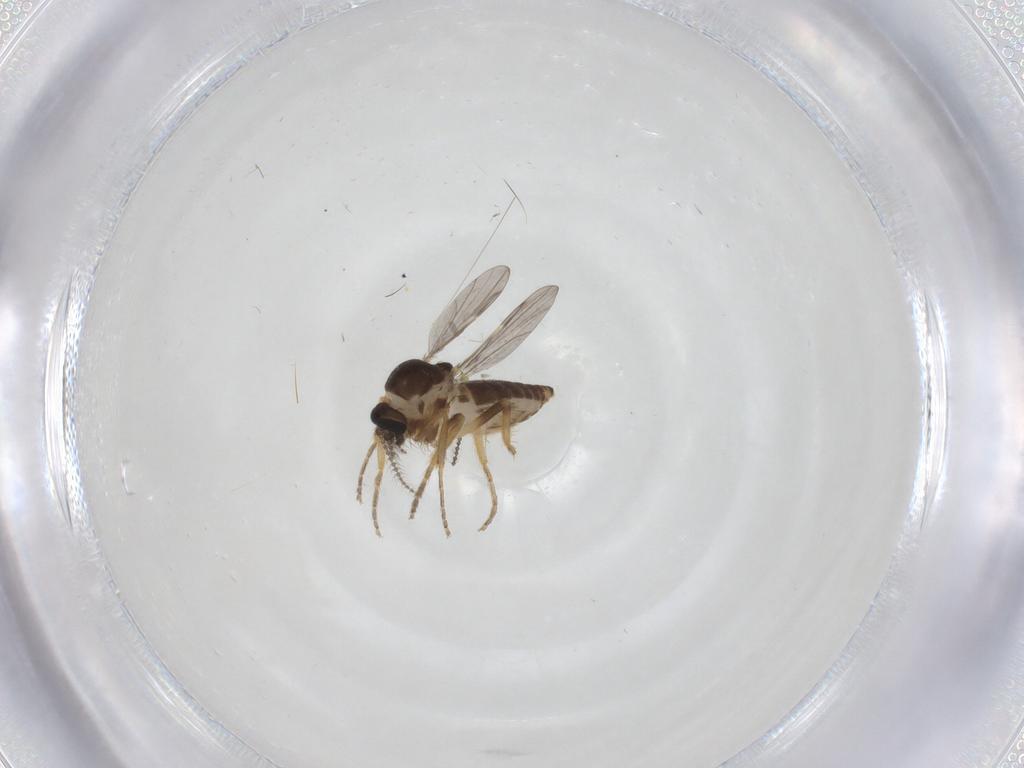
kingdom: Animalia
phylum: Arthropoda
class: Insecta
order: Diptera
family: Ceratopogonidae
